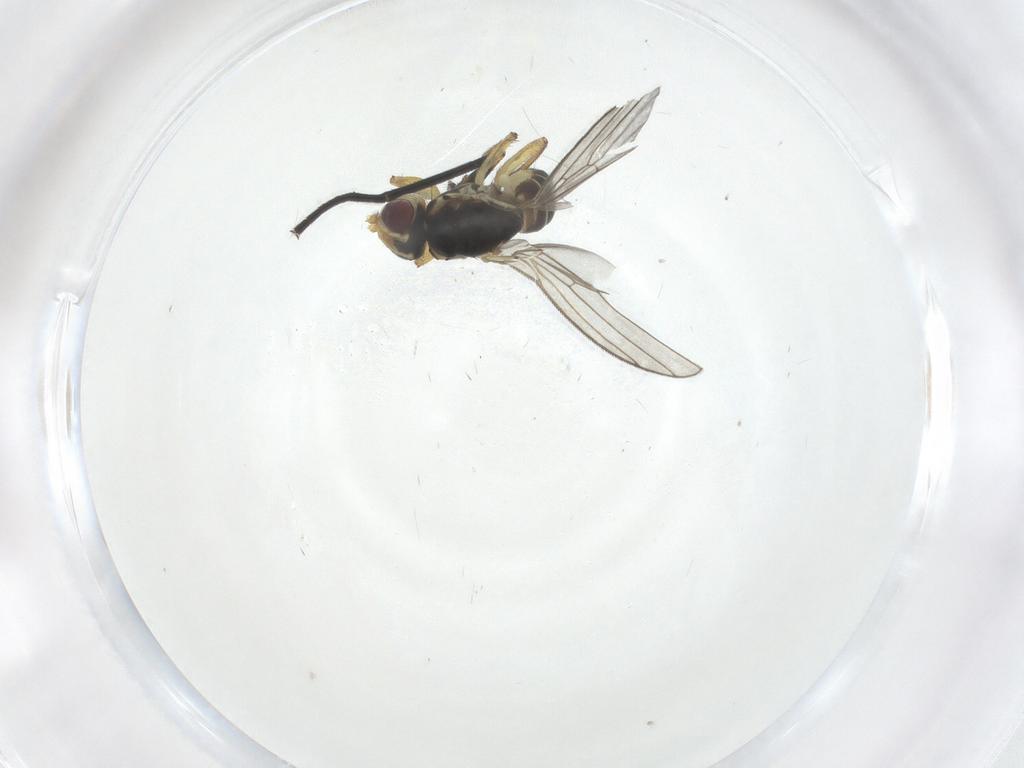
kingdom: Animalia
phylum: Arthropoda
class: Insecta
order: Diptera
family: Agromyzidae
